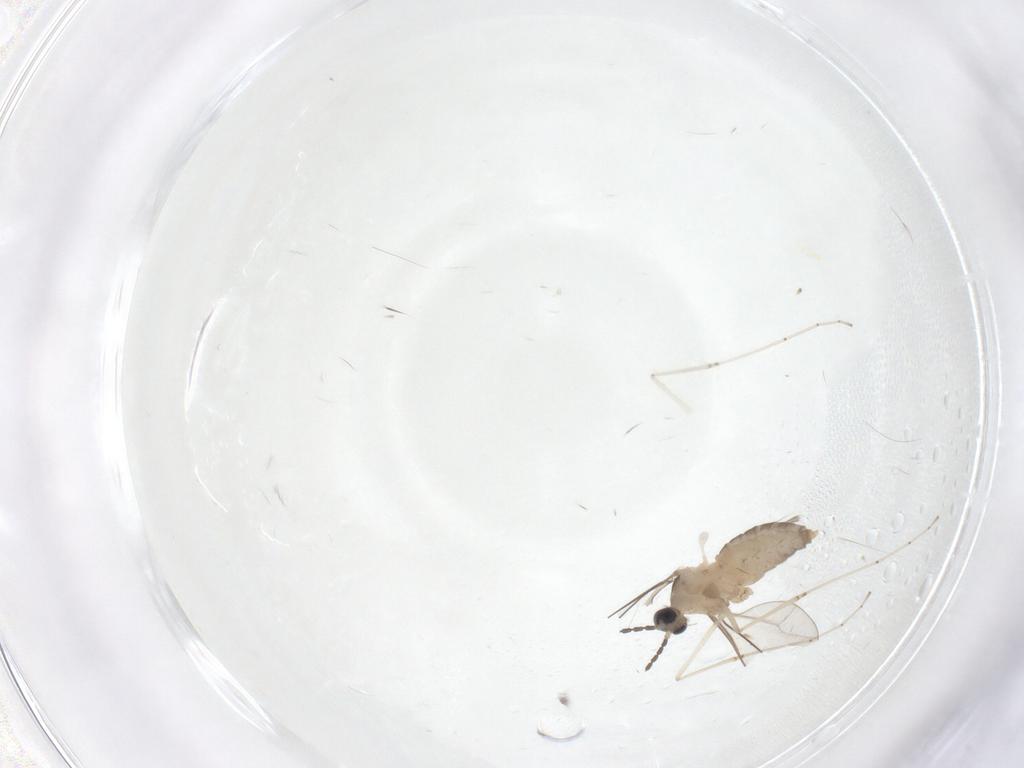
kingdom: Animalia
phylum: Arthropoda
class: Insecta
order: Diptera
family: Cecidomyiidae
